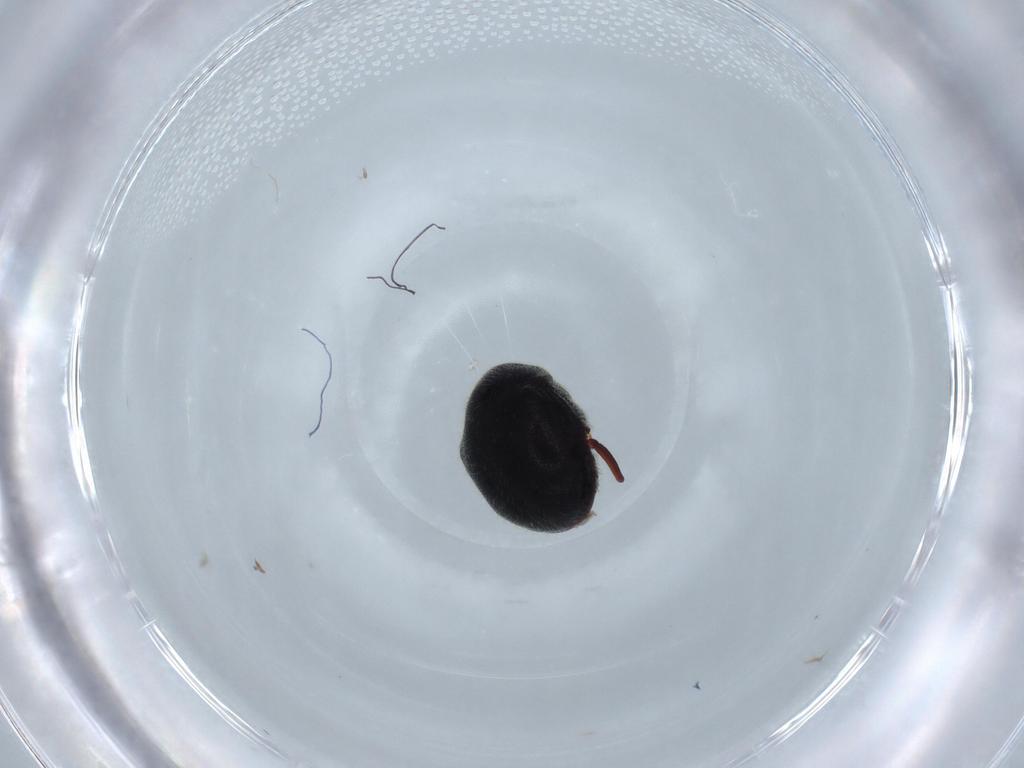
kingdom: Animalia
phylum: Arthropoda
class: Insecta
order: Coleoptera
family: Ptinidae
